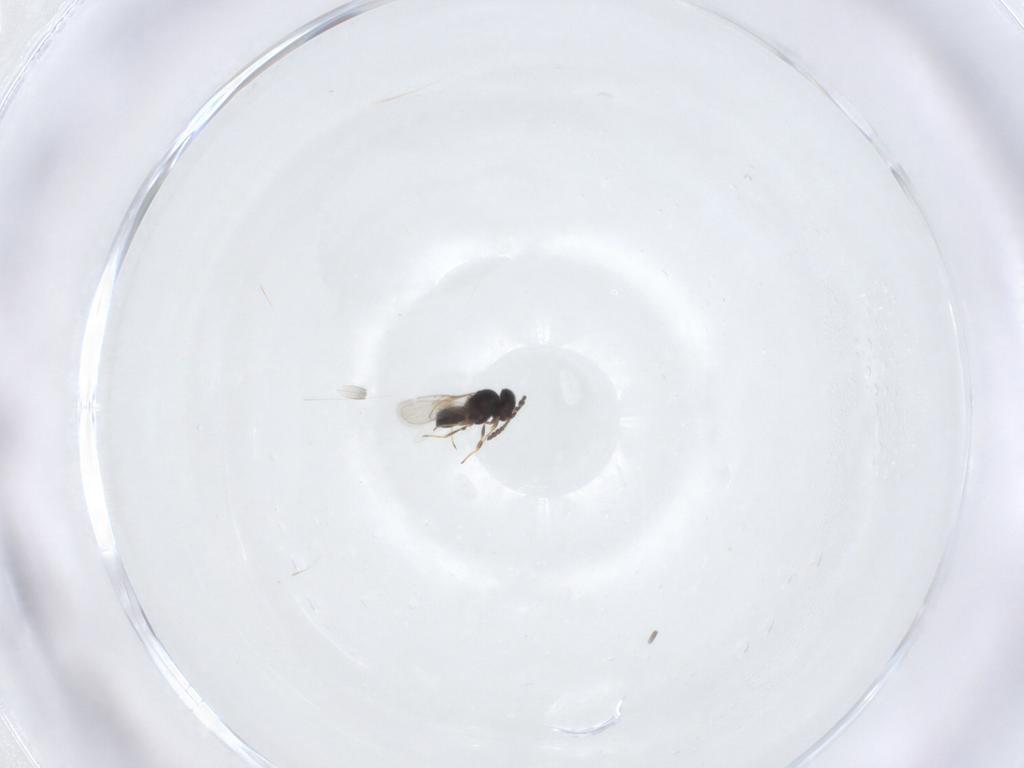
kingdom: Animalia
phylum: Arthropoda
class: Insecta
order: Hymenoptera
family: Scelionidae
